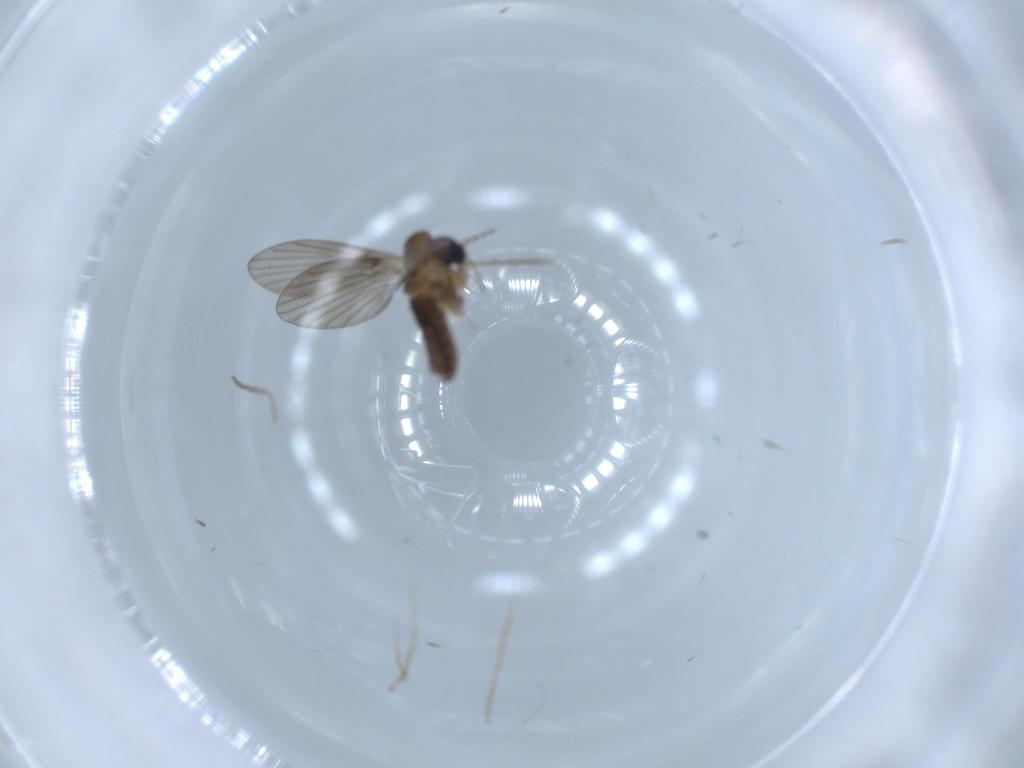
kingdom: Animalia
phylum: Arthropoda
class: Insecta
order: Diptera
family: Psychodidae
